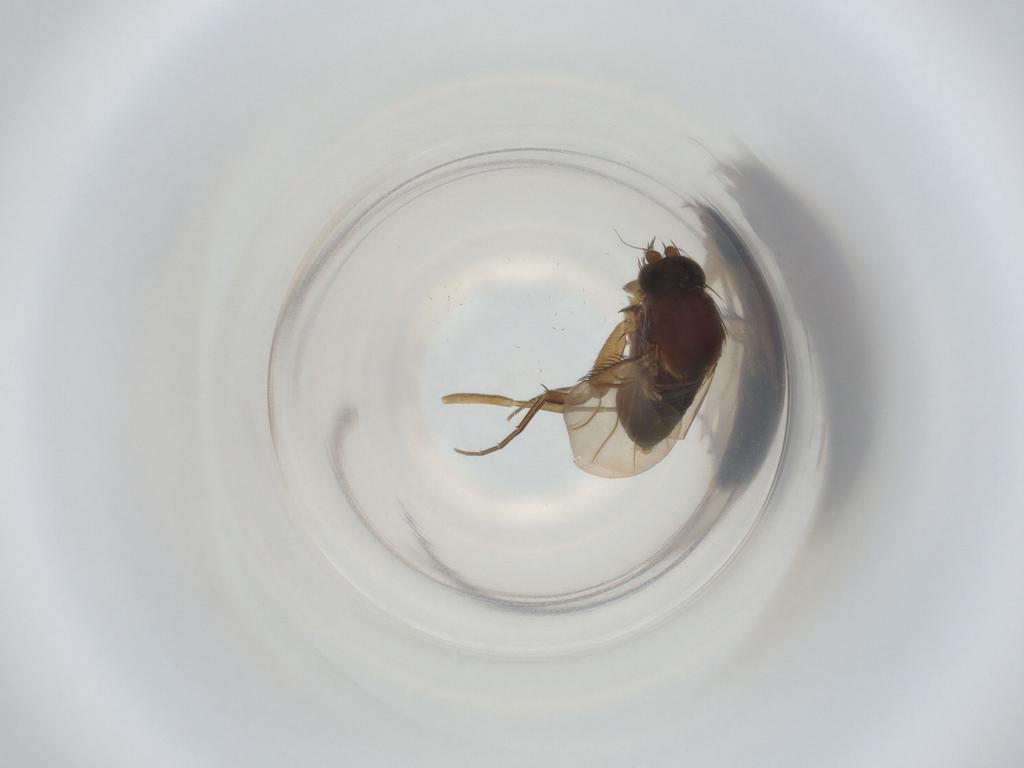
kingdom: Animalia
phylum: Arthropoda
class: Insecta
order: Diptera
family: Phoridae
